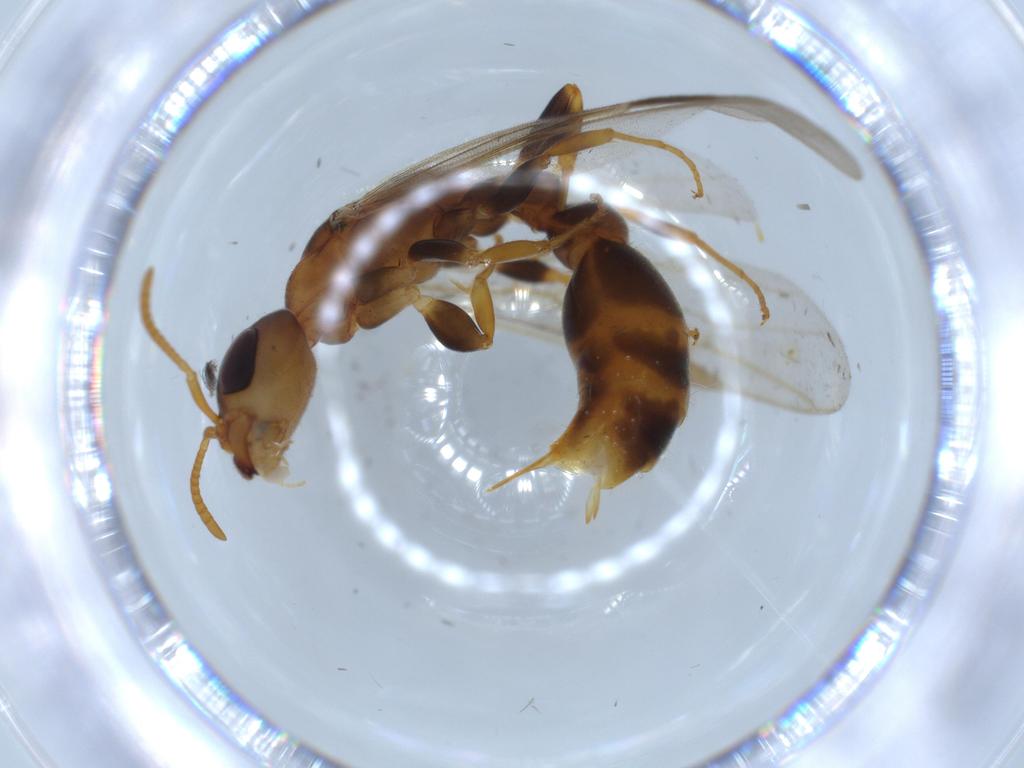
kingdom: Animalia
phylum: Arthropoda
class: Insecta
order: Hymenoptera
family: Formicidae
